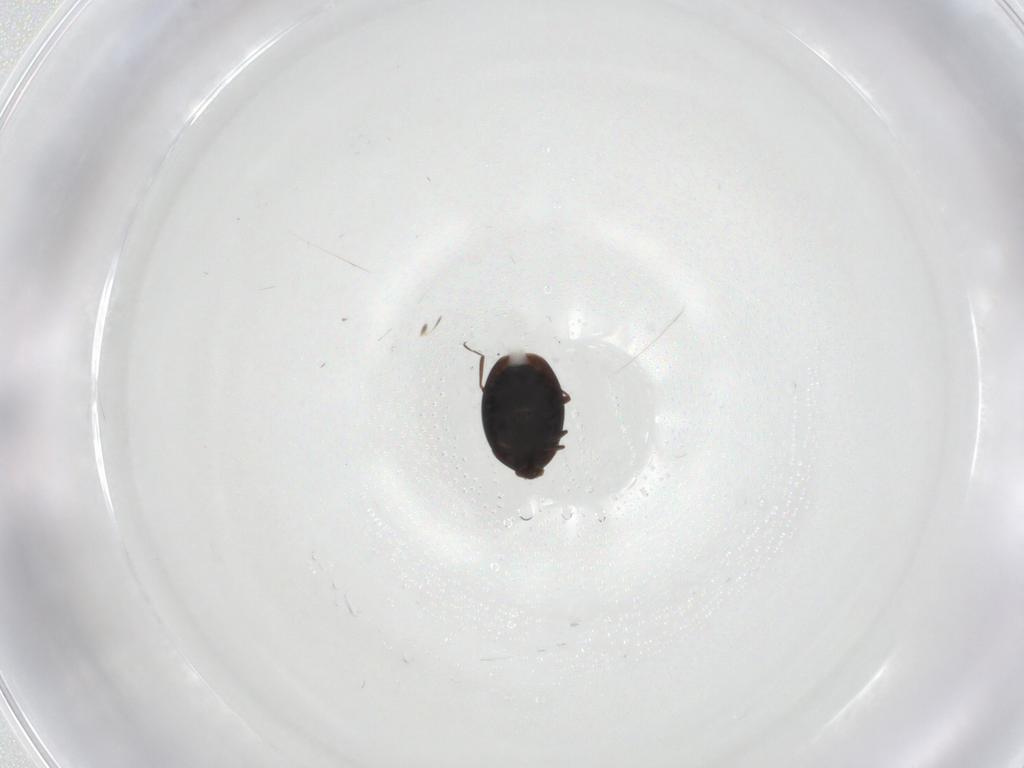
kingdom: Animalia
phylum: Arthropoda
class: Insecta
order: Coleoptera
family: Corylophidae
